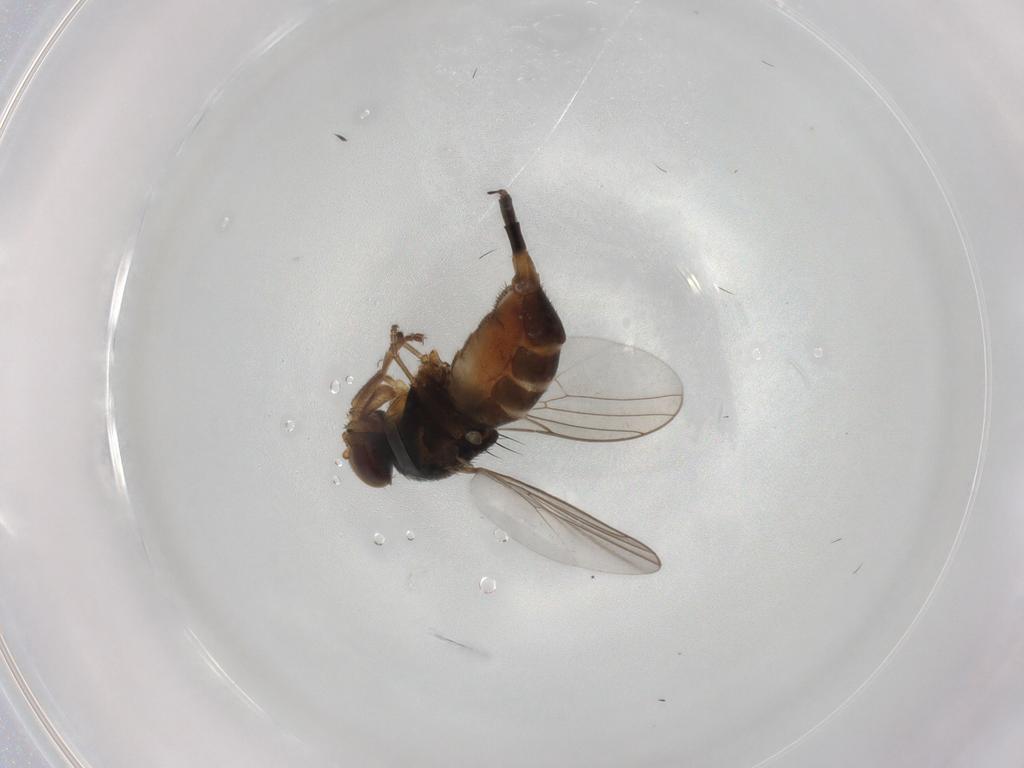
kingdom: Animalia
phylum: Arthropoda
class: Insecta
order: Diptera
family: Chloropidae
